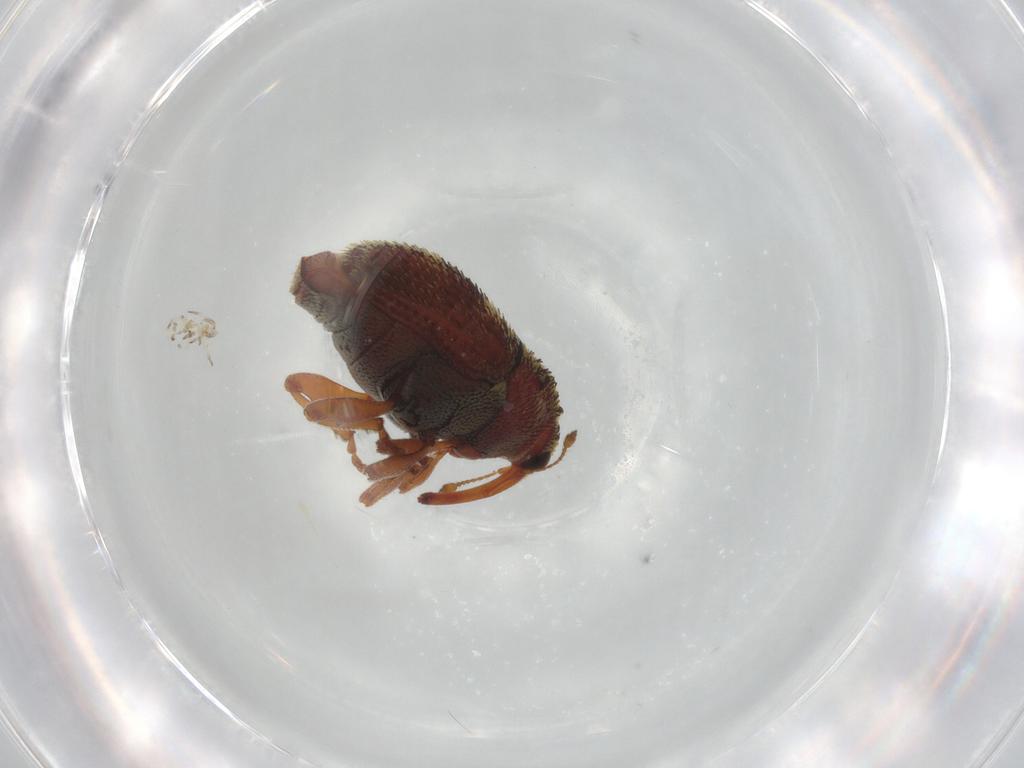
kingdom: Animalia
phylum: Arthropoda
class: Insecta
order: Coleoptera
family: Curculionidae
